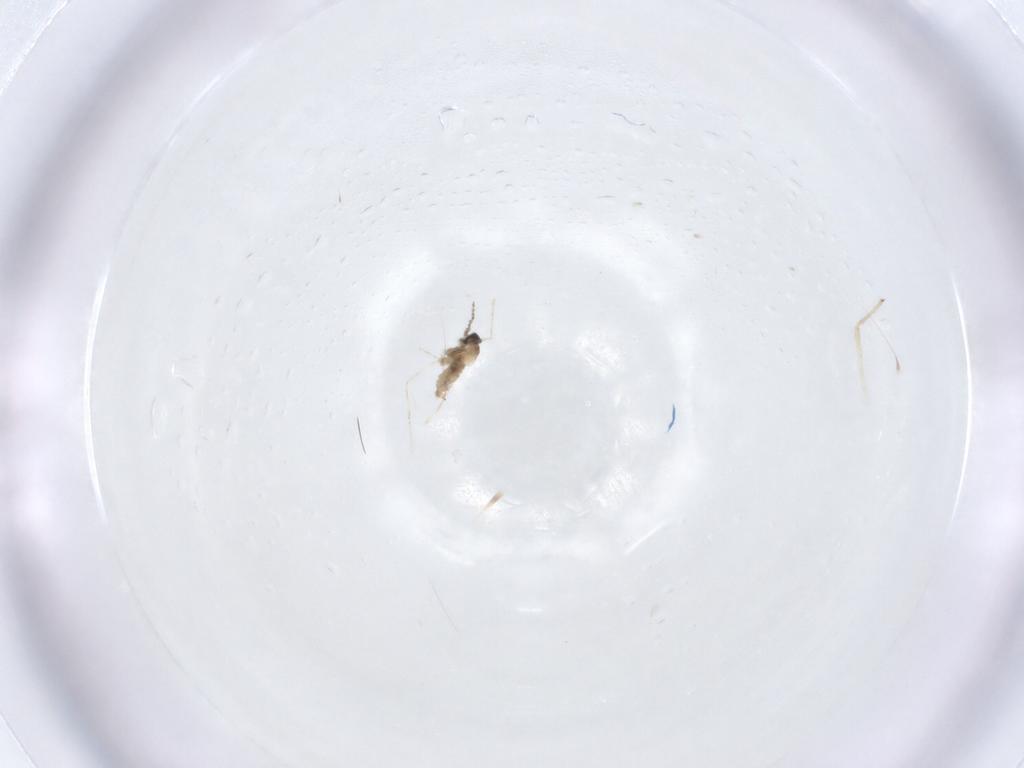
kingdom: Animalia
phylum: Arthropoda
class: Insecta
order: Diptera
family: Cecidomyiidae
